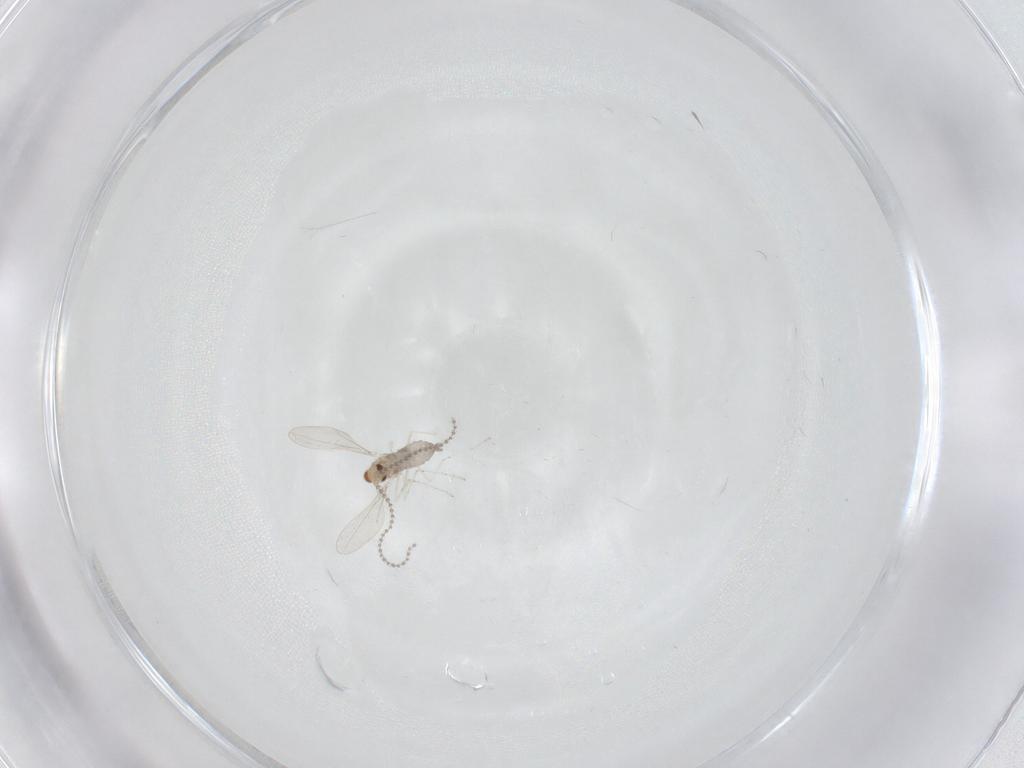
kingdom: Animalia
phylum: Arthropoda
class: Insecta
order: Diptera
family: Cecidomyiidae
